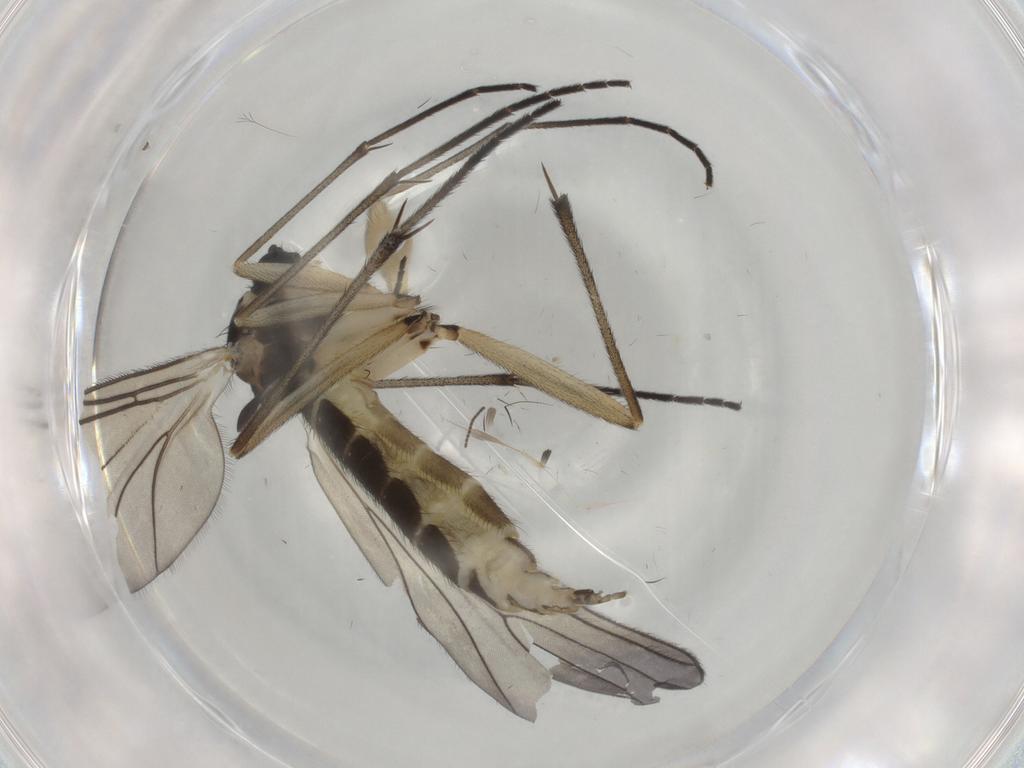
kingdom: Animalia
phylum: Arthropoda
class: Insecta
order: Diptera
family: Sciaridae
